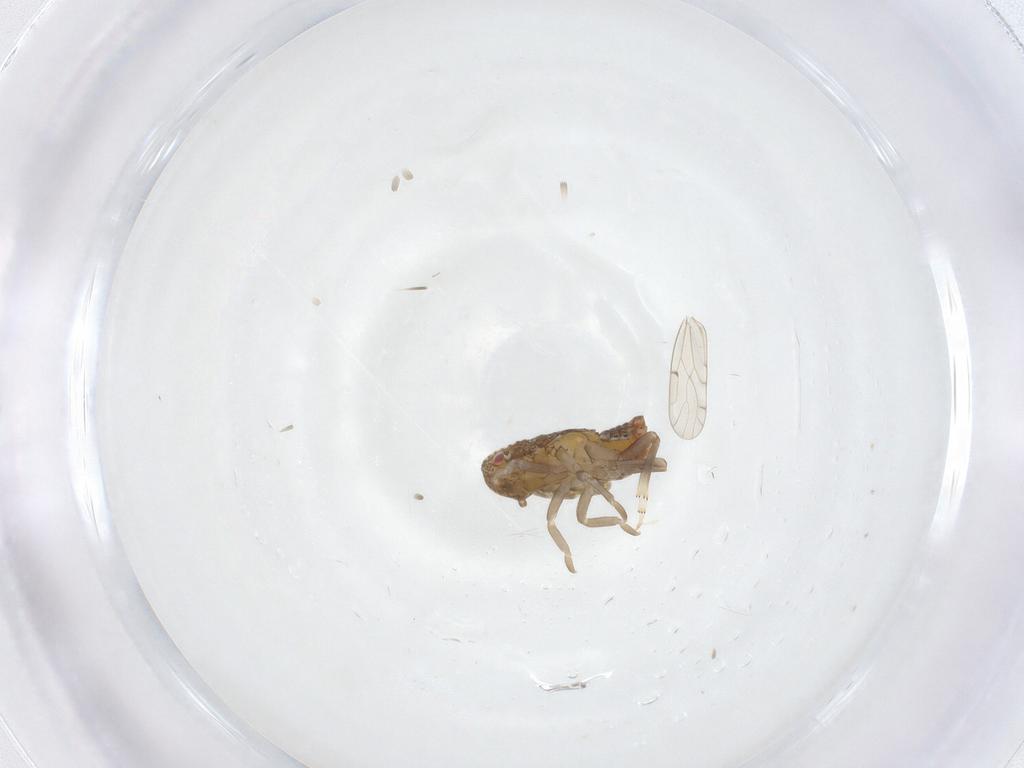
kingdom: Animalia
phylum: Arthropoda
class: Insecta
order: Hemiptera
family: Flatidae
